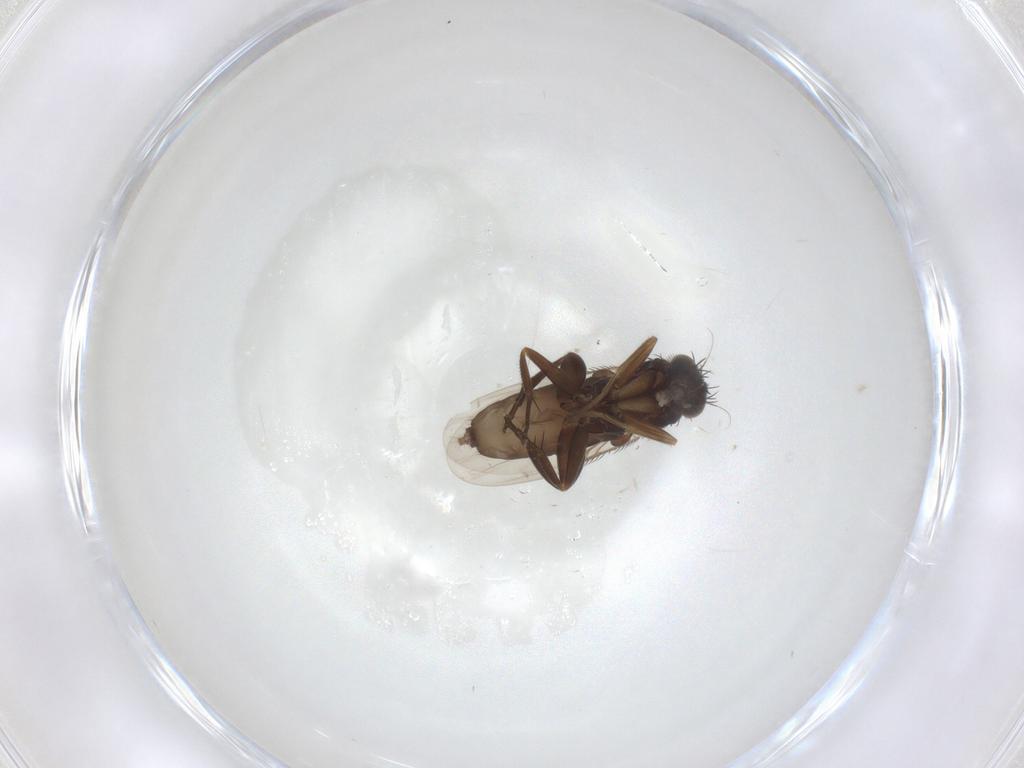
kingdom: Animalia
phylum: Arthropoda
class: Insecta
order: Diptera
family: Phoridae
